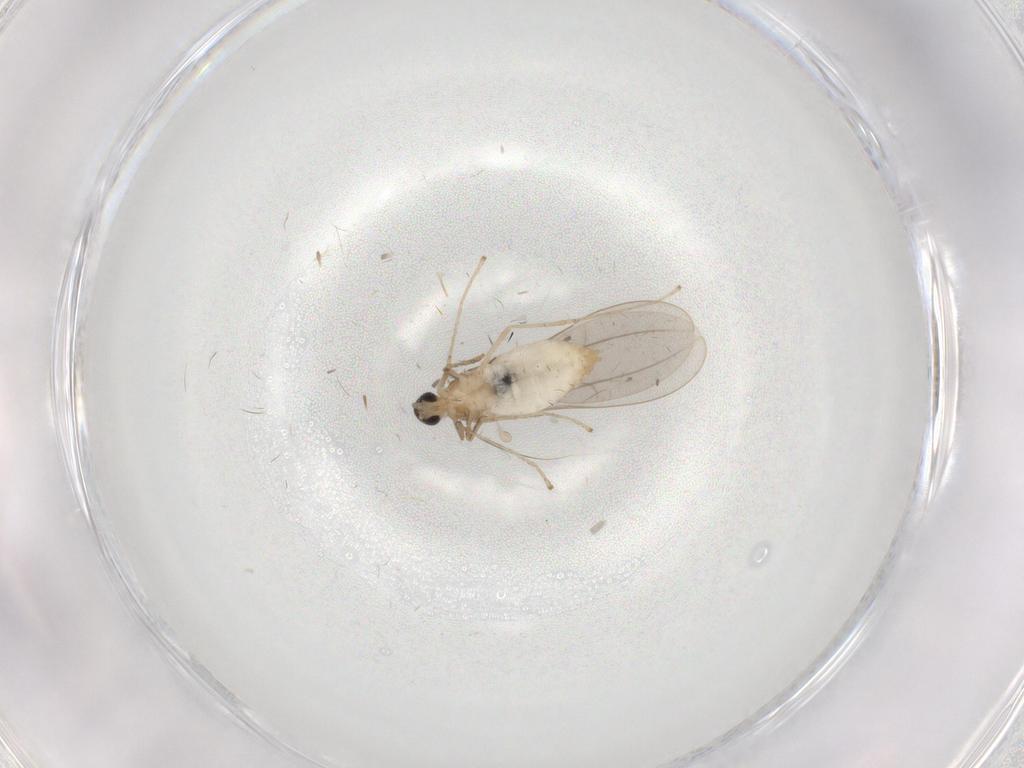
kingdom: Animalia
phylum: Arthropoda
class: Insecta
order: Diptera
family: Cecidomyiidae
